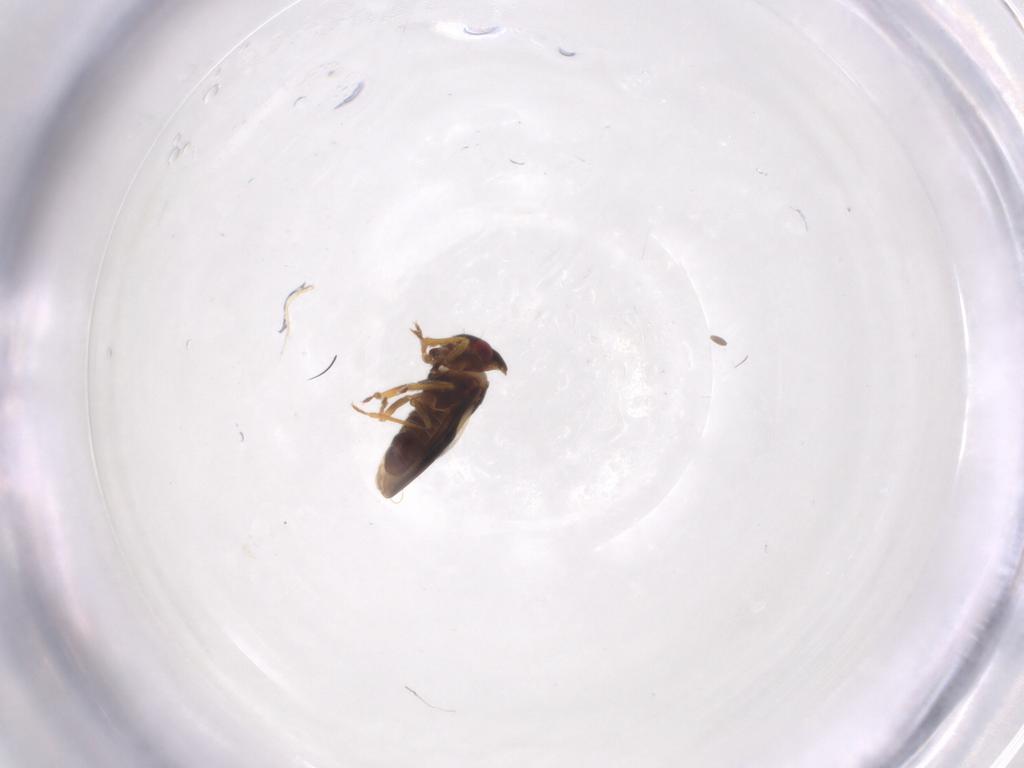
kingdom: Animalia
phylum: Arthropoda
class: Insecta
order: Hemiptera
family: Schizopteridae
